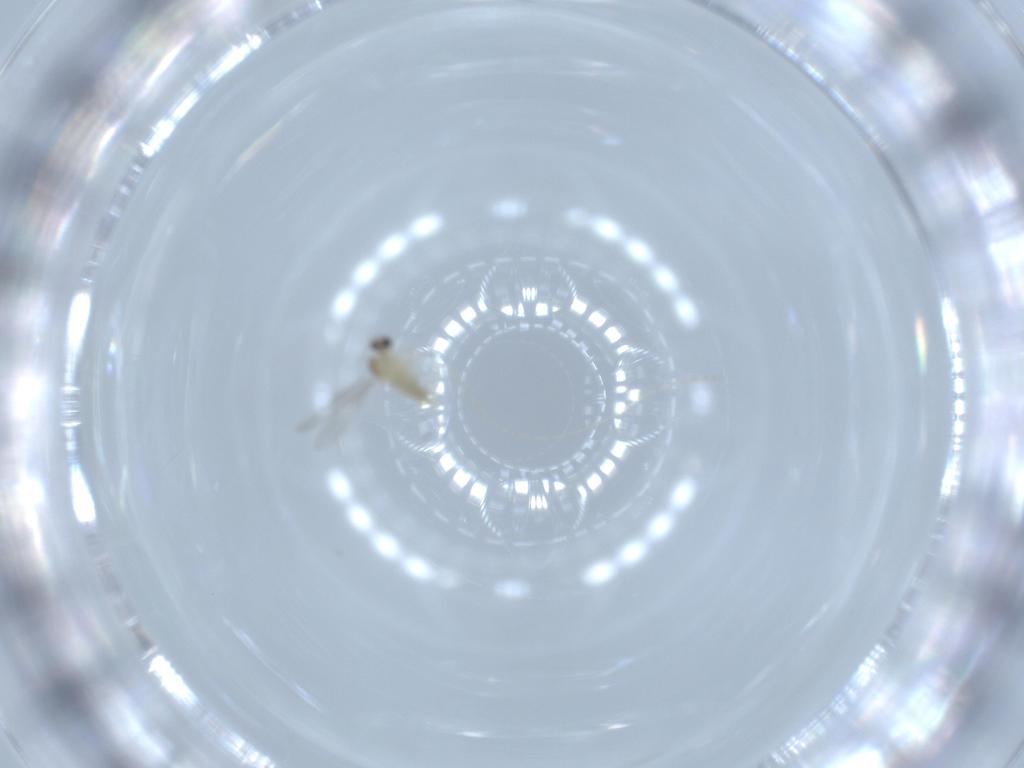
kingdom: Animalia
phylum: Arthropoda
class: Insecta
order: Diptera
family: Cecidomyiidae
